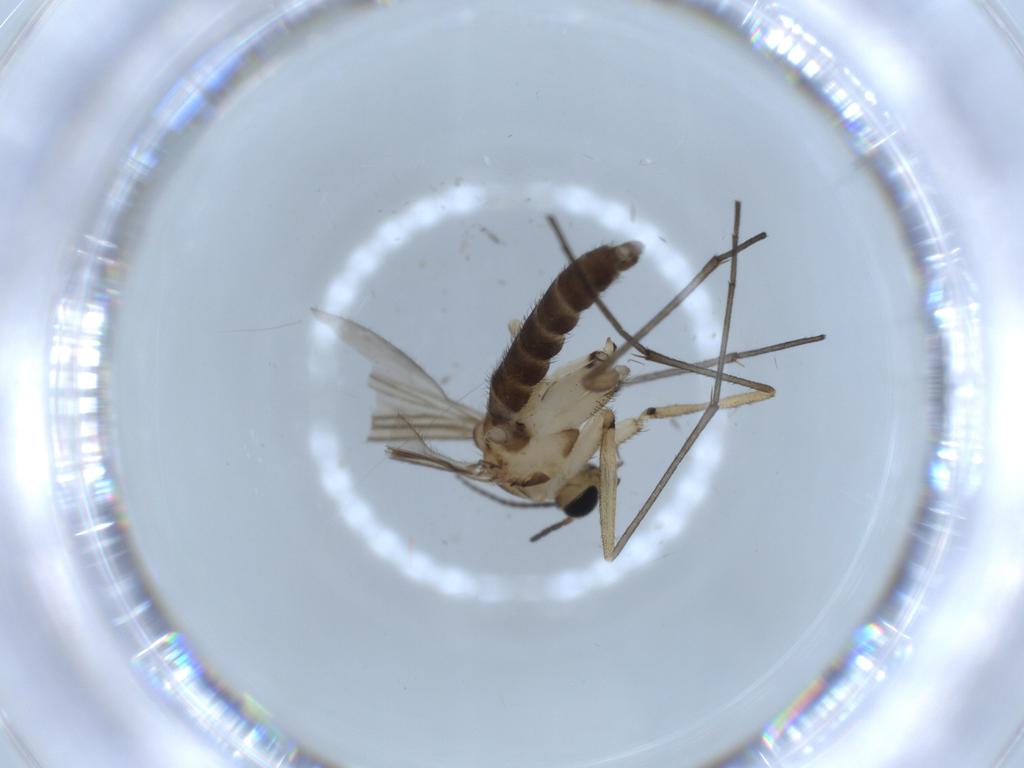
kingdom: Animalia
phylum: Arthropoda
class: Insecta
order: Diptera
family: Sciaridae
